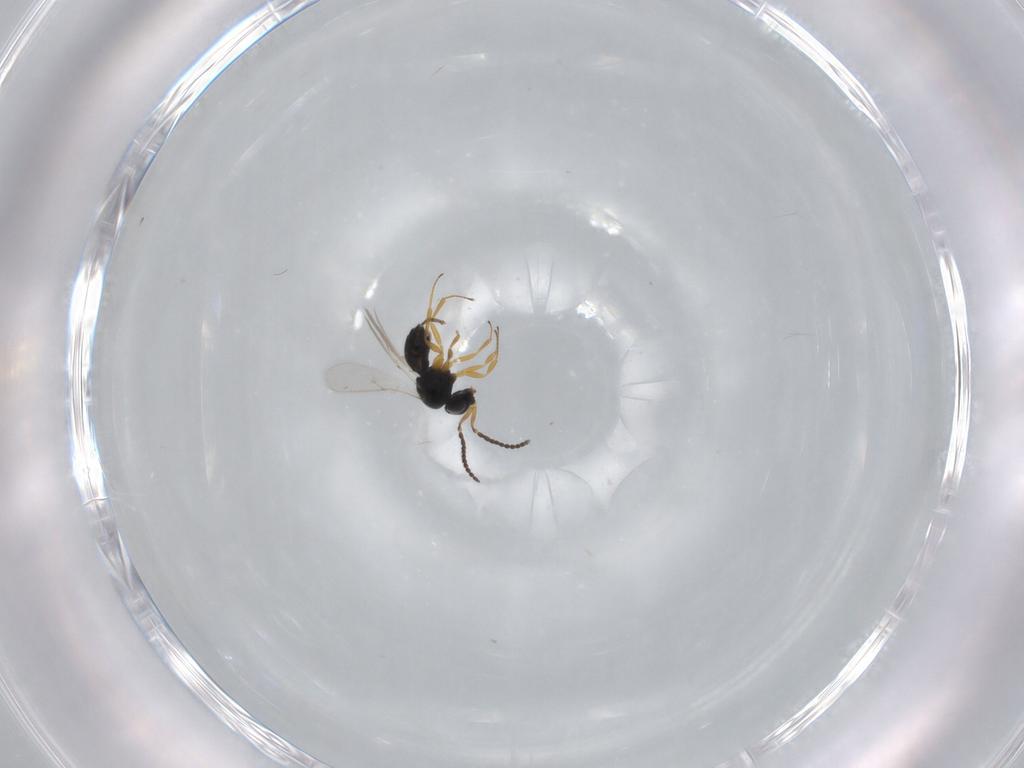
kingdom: Animalia
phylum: Arthropoda
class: Insecta
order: Hymenoptera
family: Scelionidae
